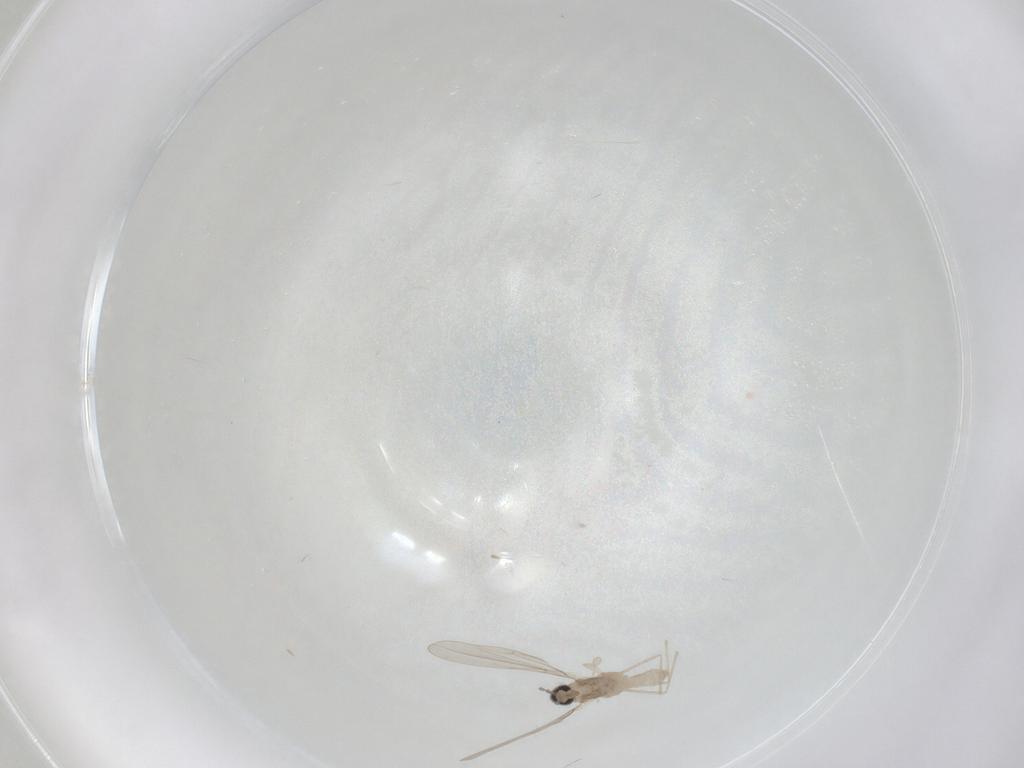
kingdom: Animalia
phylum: Arthropoda
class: Insecta
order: Diptera
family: Muscidae
